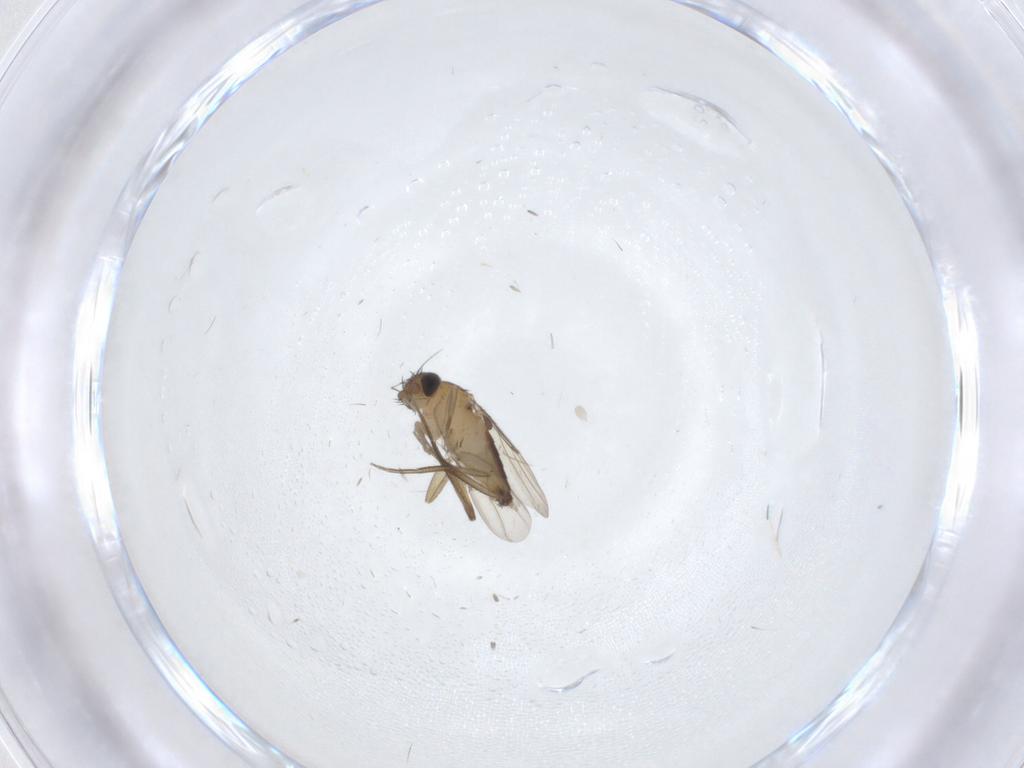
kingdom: Animalia
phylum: Arthropoda
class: Insecta
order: Diptera
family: Phoridae
